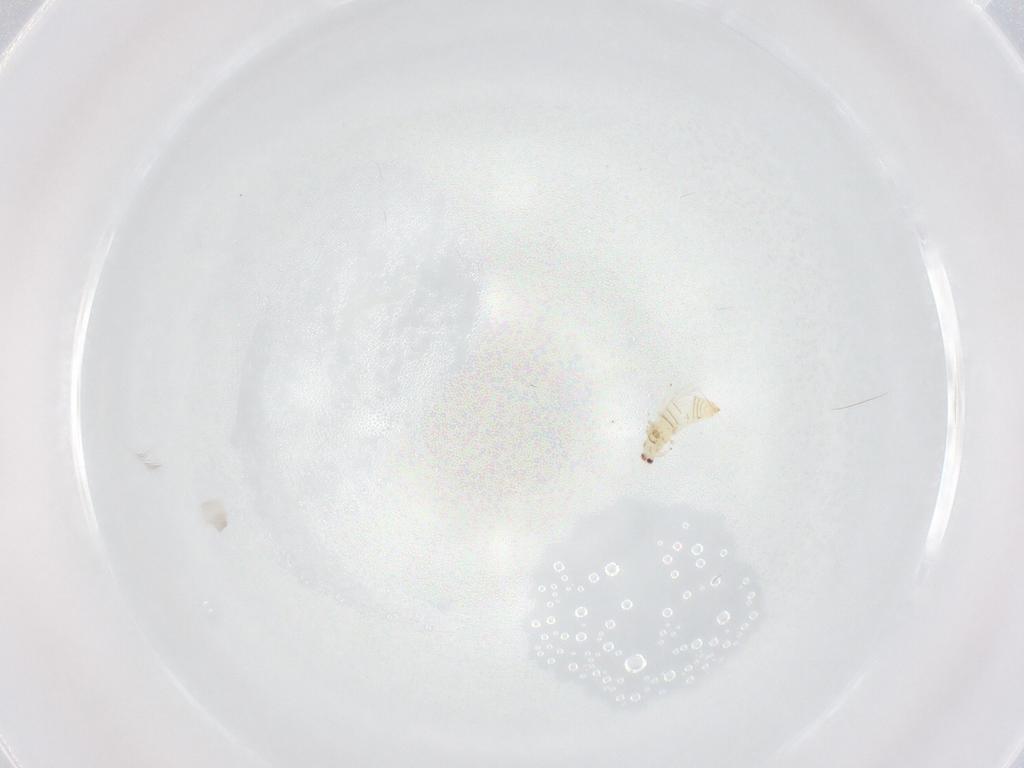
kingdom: Animalia
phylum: Arthropoda
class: Insecta
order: Thysanoptera
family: Thripidae
